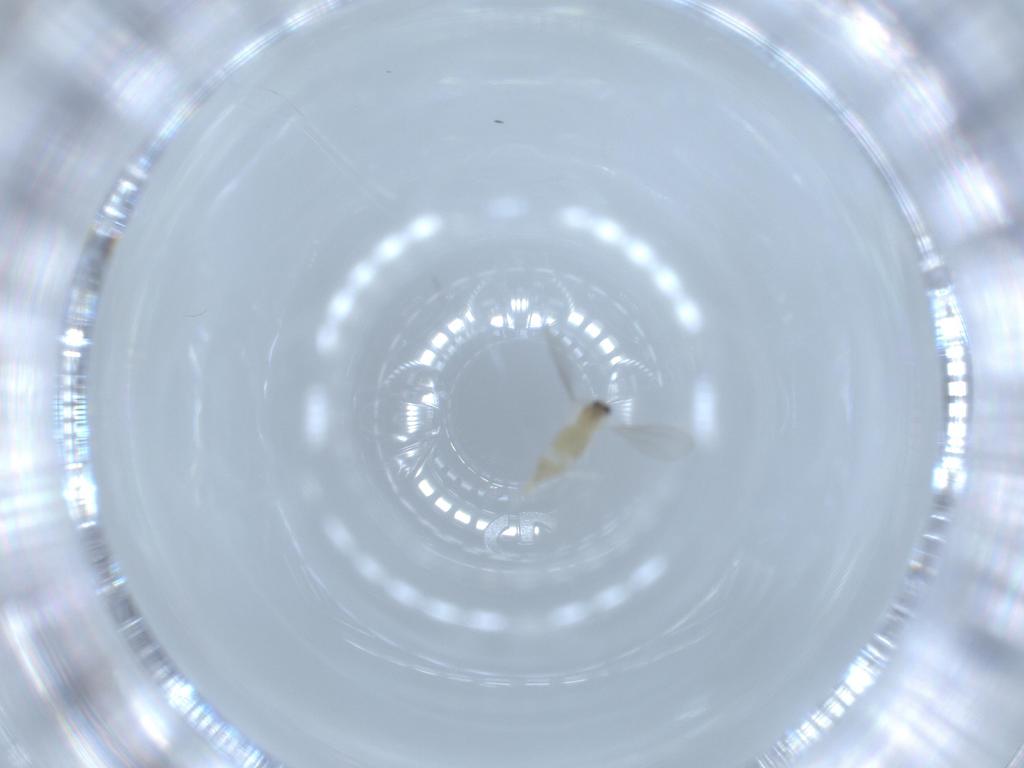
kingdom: Animalia
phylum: Arthropoda
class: Insecta
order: Diptera
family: Cecidomyiidae
